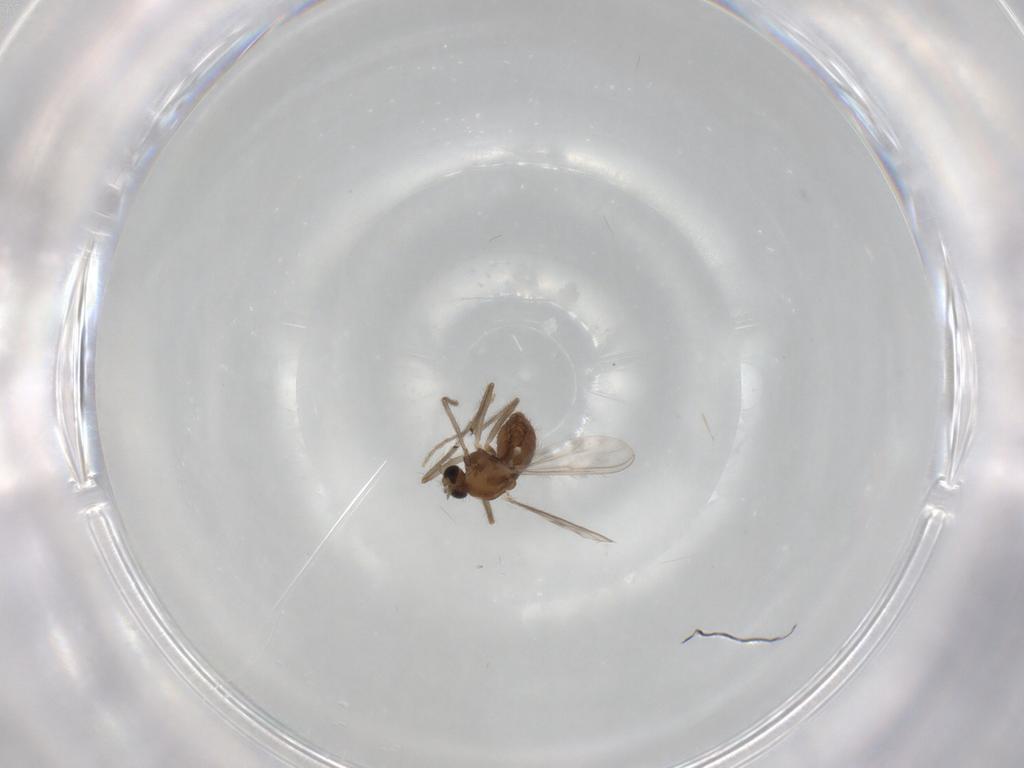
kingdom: Animalia
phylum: Arthropoda
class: Insecta
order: Diptera
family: Chironomidae
